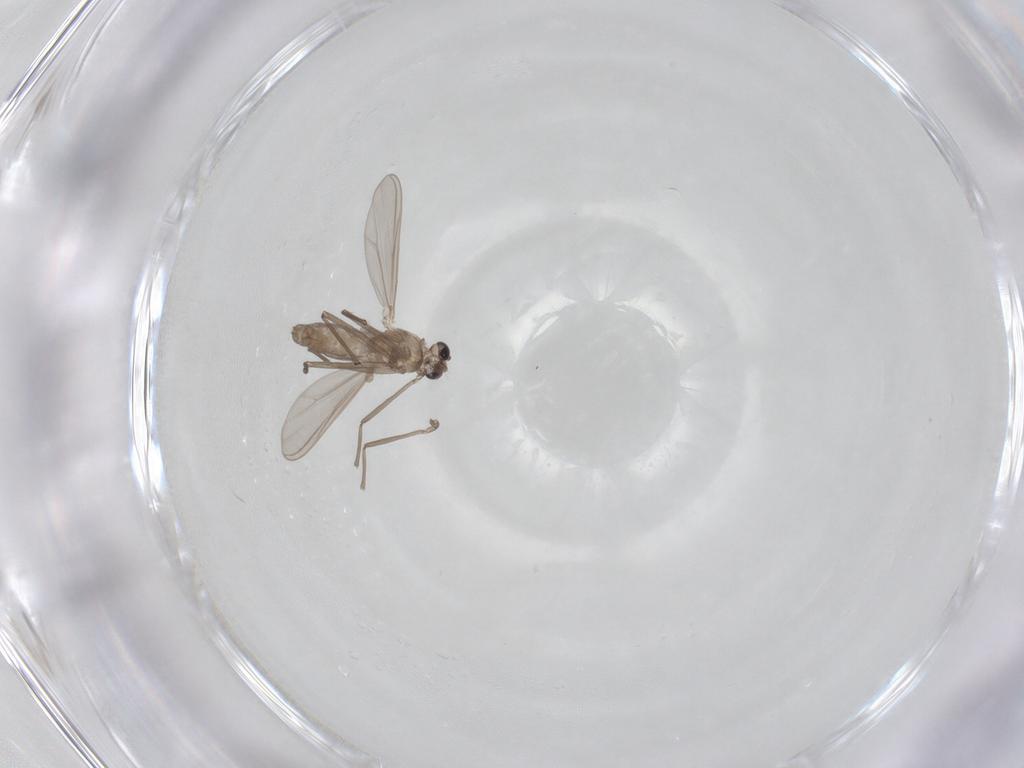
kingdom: Animalia
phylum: Arthropoda
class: Insecta
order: Diptera
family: Chironomidae
